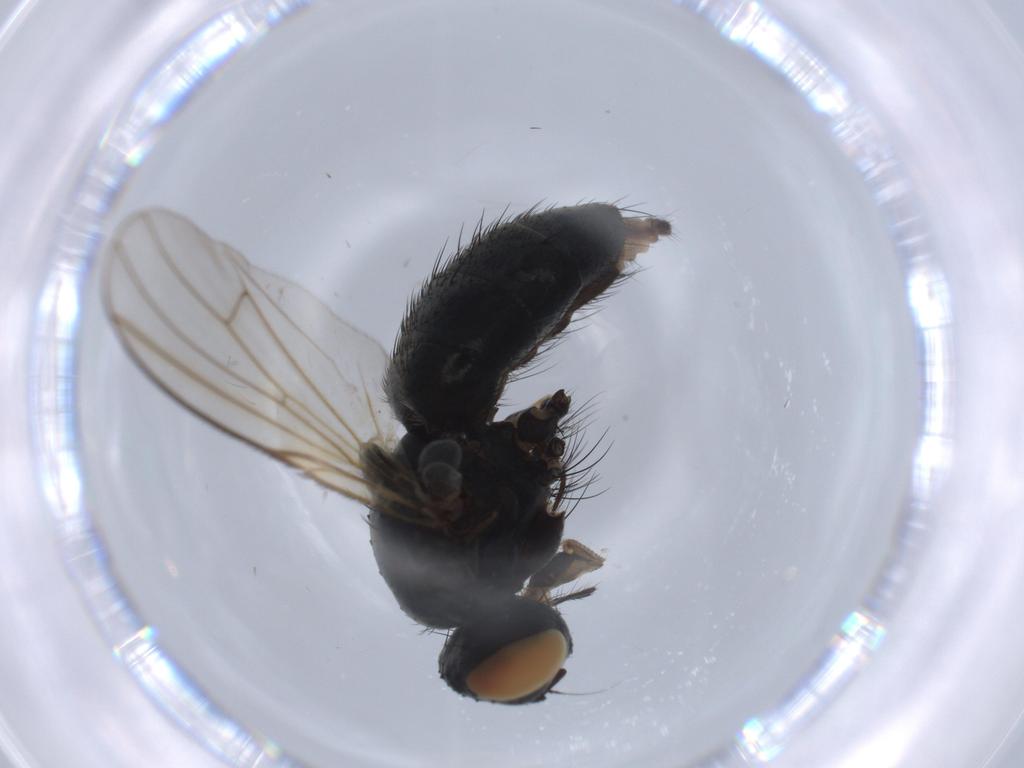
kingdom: Animalia
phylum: Arthropoda
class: Insecta
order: Diptera
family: Muscidae
